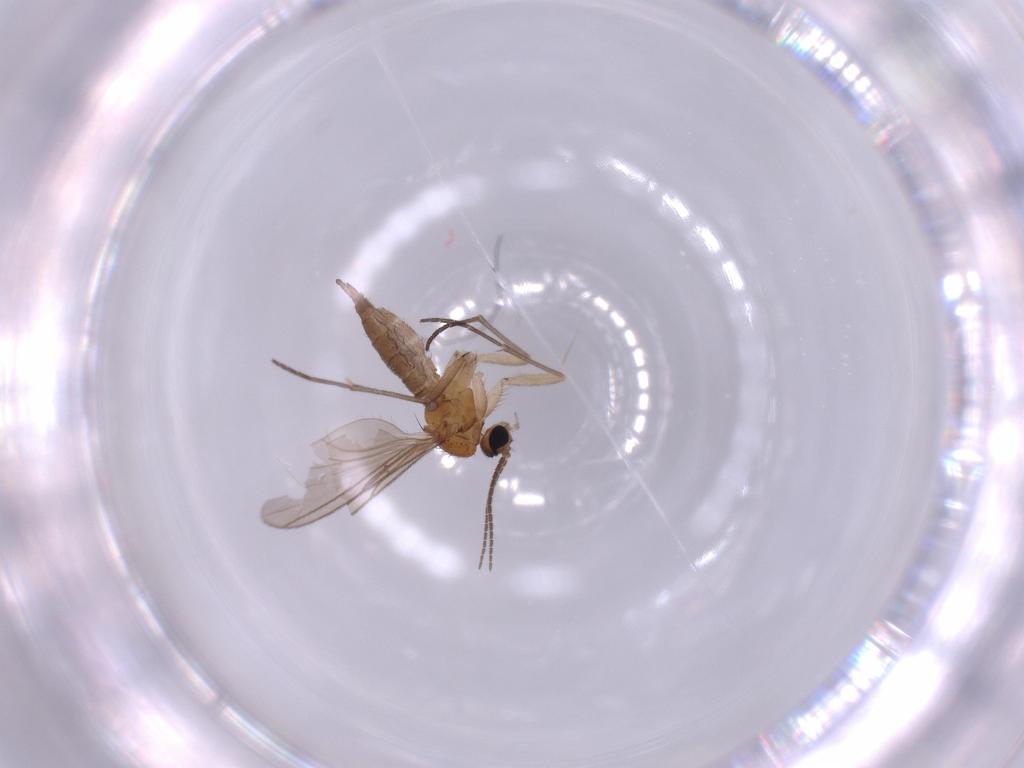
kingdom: Animalia
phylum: Arthropoda
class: Insecta
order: Diptera
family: Sciaridae
